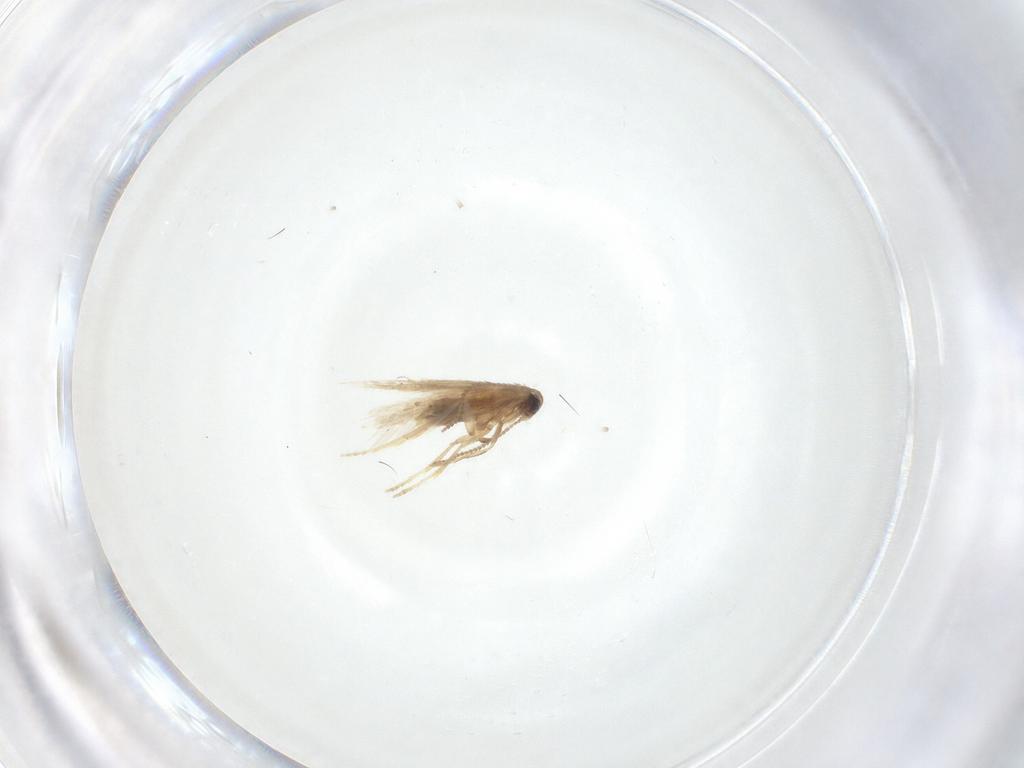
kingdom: Animalia
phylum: Arthropoda
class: Insecta
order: Lepidoptera
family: Nepticulidae
